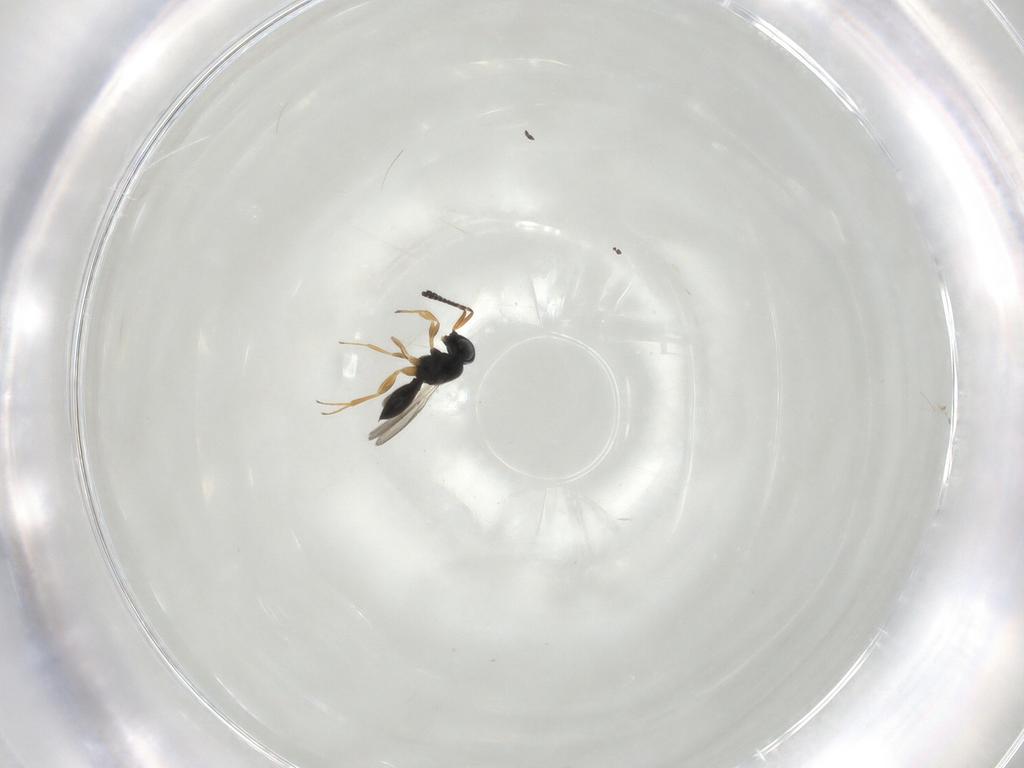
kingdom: Animalia
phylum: Arthropoda
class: Insecta
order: Hymenoptera
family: Scelionidae
